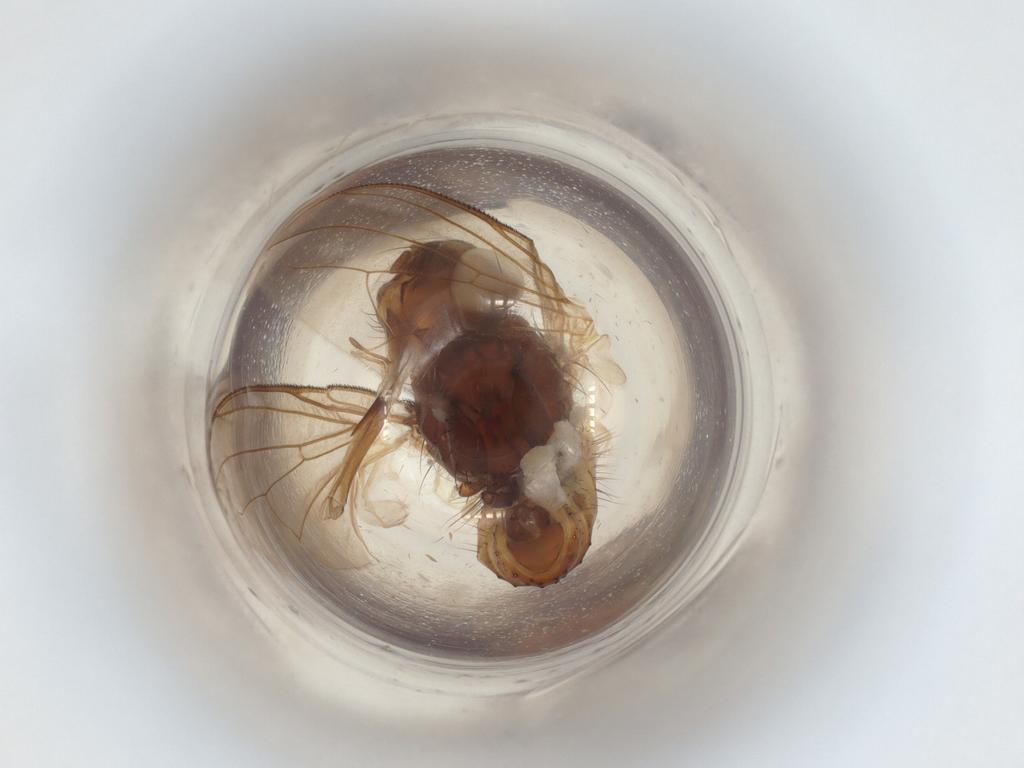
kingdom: Animalia
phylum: Arthropoda
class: Insecta
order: Diptera
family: Tachinidae
